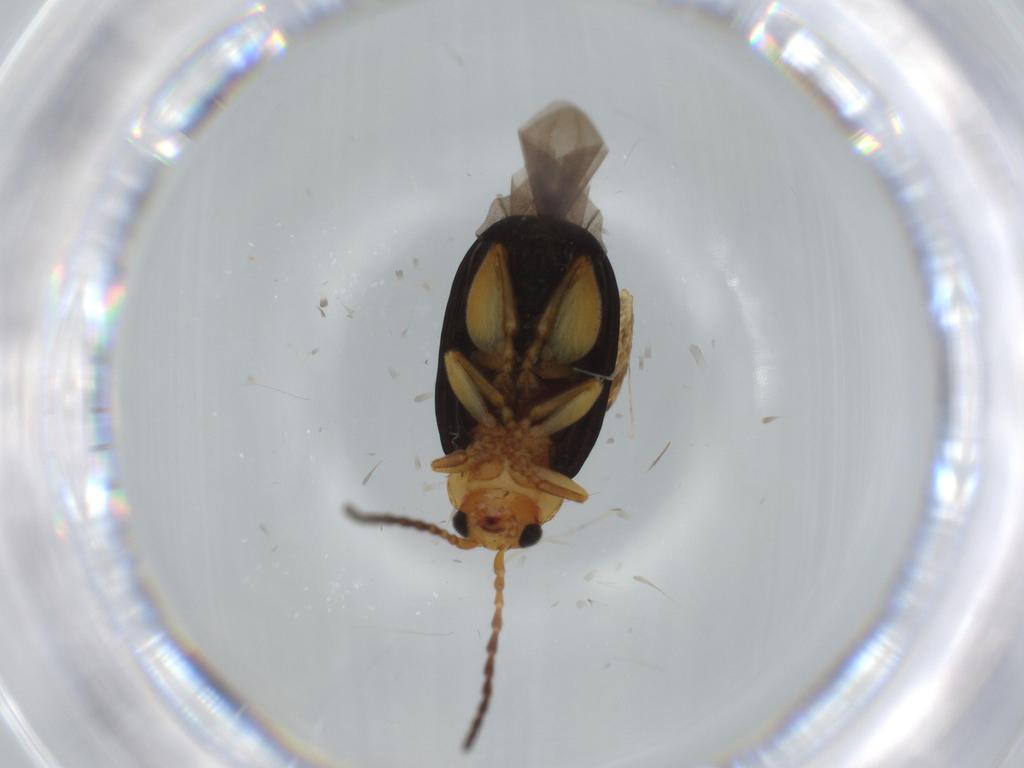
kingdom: Animalia
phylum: Arthropoda
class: Insecta
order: Coleoptera
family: Chrysomelidae
